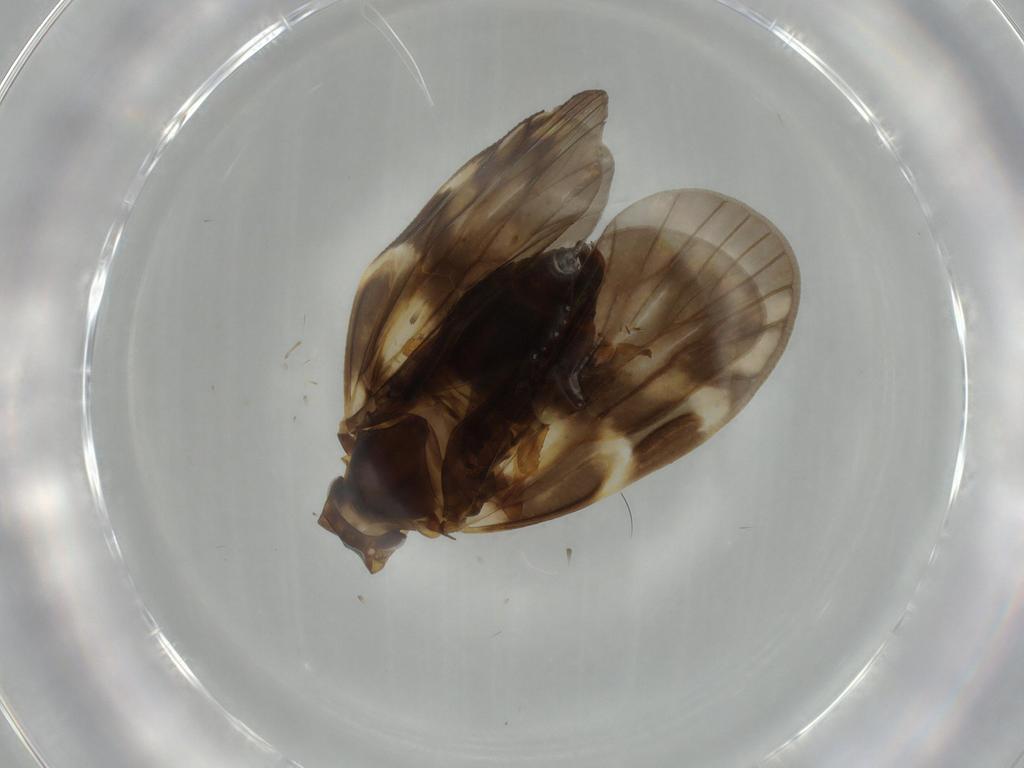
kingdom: Animalia
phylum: Arthropoda
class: Insecta
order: Hemiptera
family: Cixiidae
